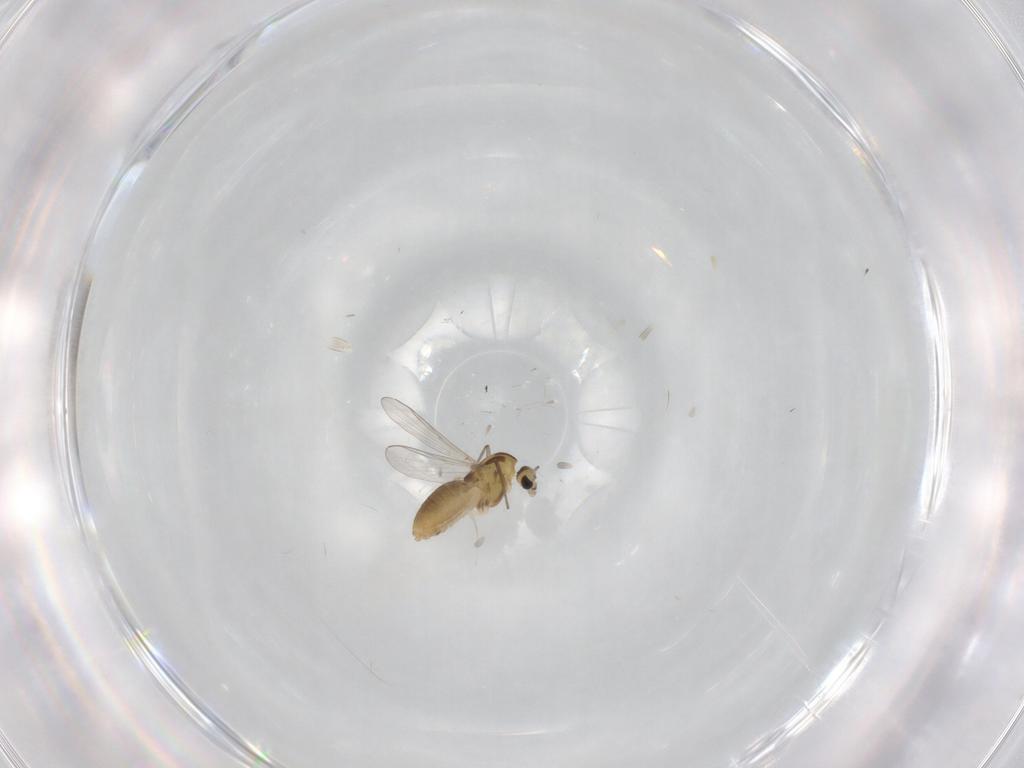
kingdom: Animalia
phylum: Arthropoda
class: Insecta
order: Diptera
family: Chironomidae
